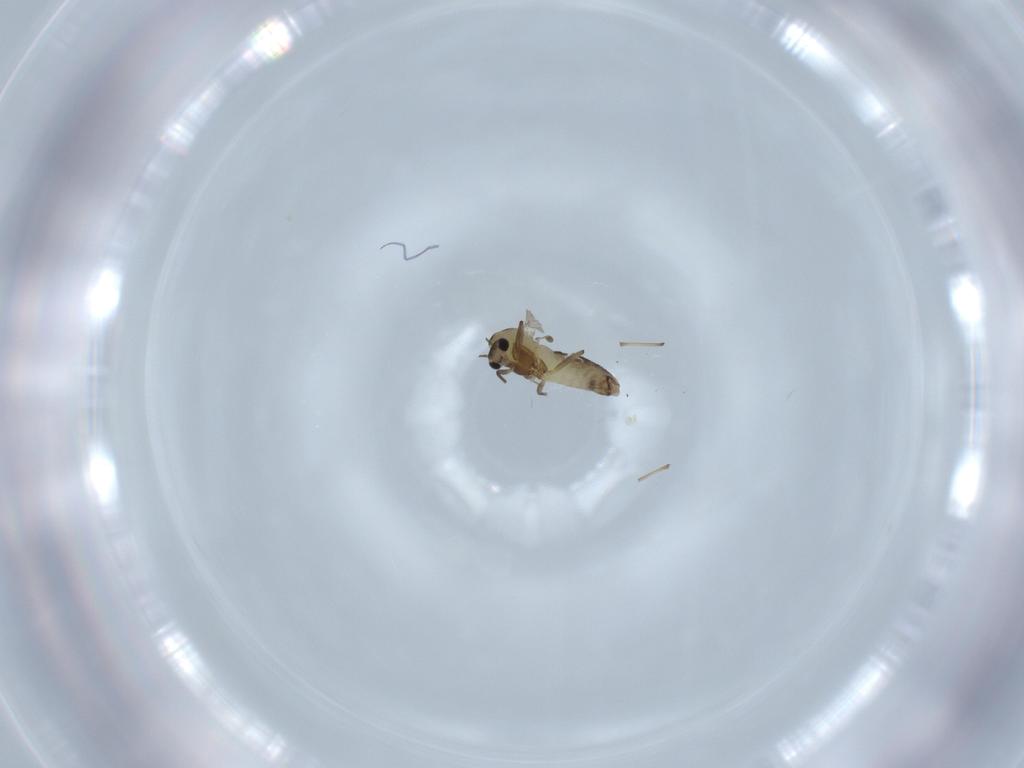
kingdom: Animalia
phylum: Arthropoda
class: Insecta
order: Diptera
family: Chironomidae
